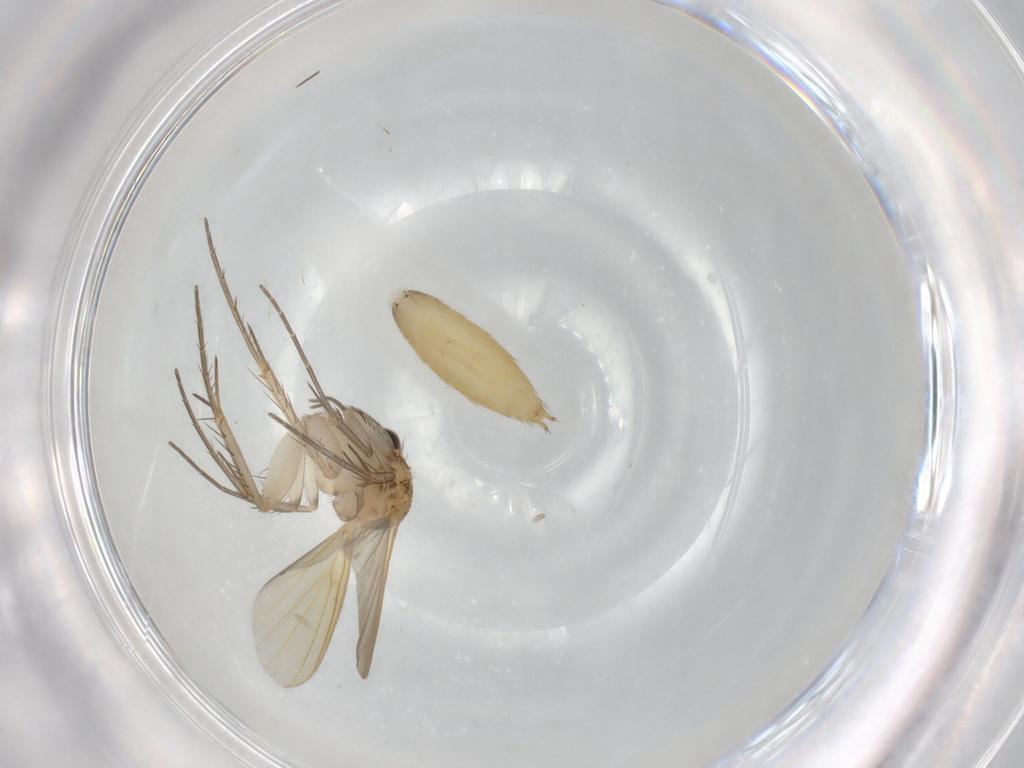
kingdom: Animalia
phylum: Arthropoda
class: Insecta
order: Diptera
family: Mycetophilidae
